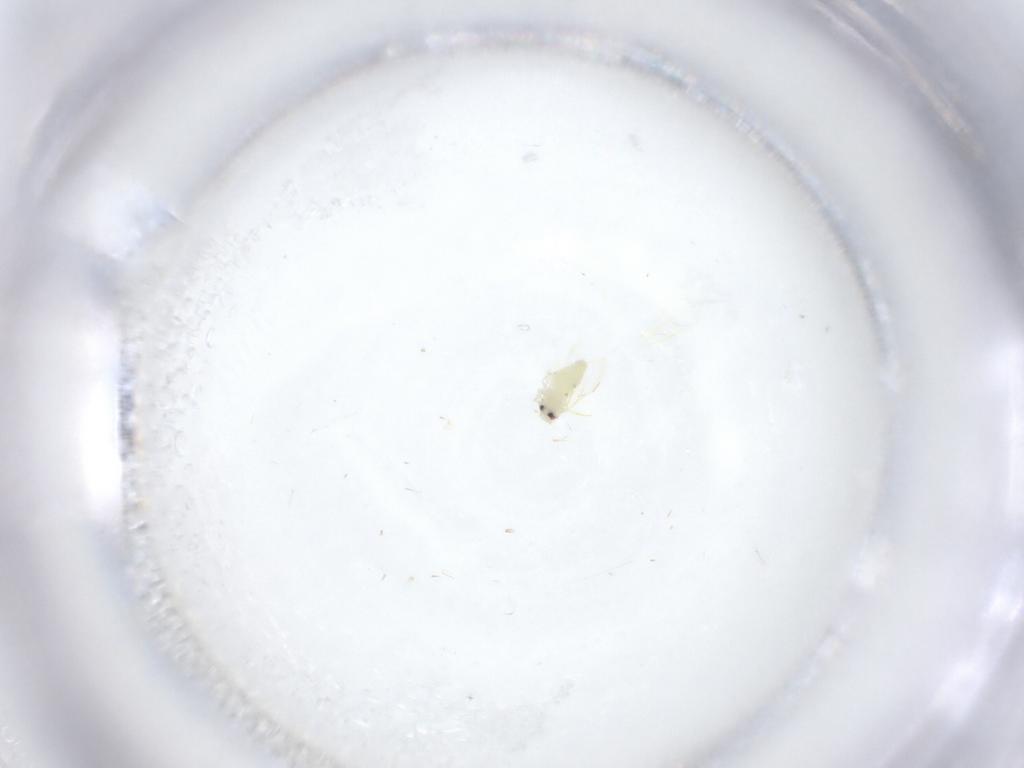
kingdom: Animalia
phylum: Arthropoda
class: Insecta
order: Hemiptera
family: Aleyrodidae
